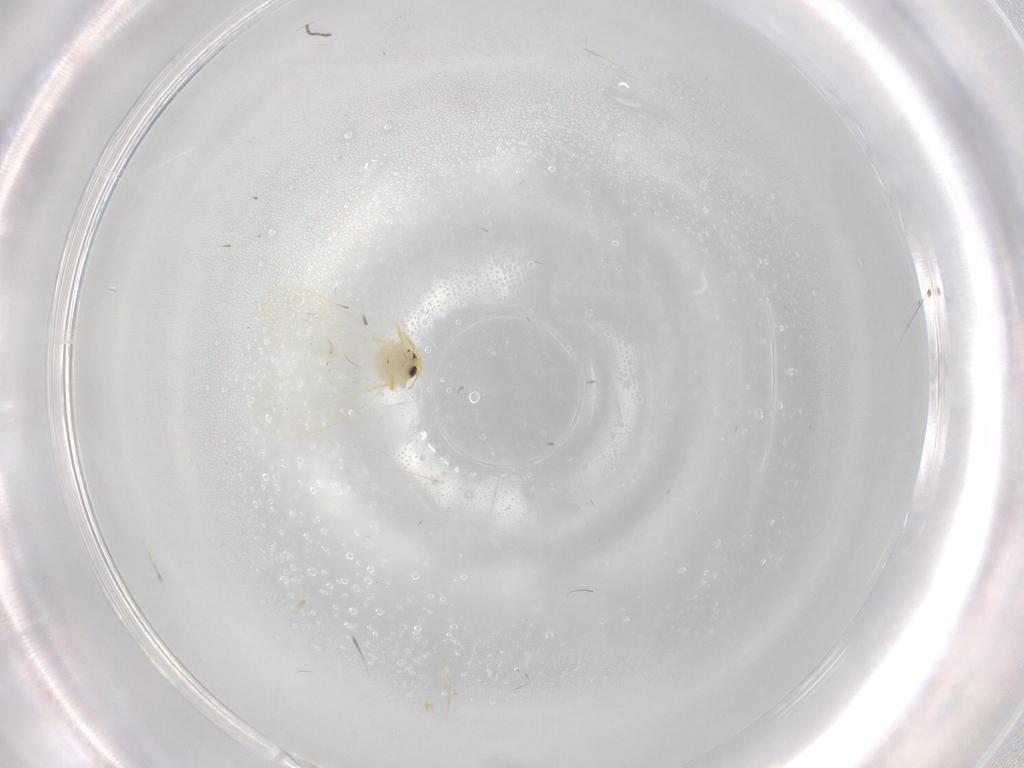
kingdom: Animalia
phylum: Arthropoda
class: Insecta
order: Hemiptera
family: Aleyrodidae
